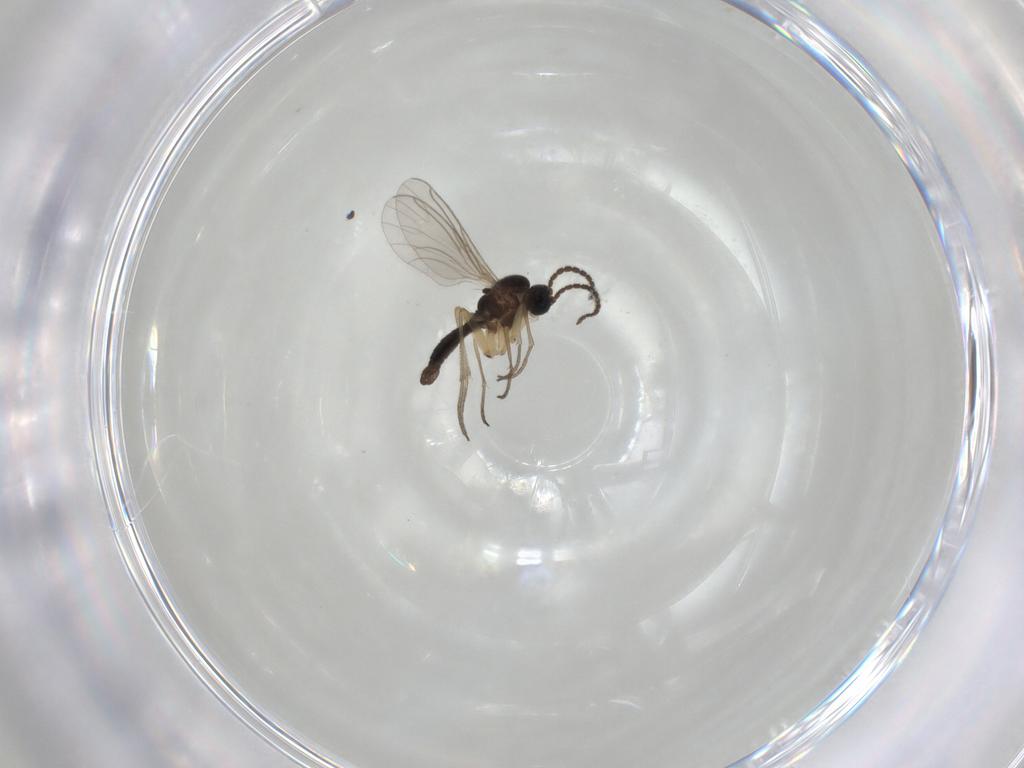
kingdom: Animalia
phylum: Arthropoda
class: Insecta
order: Diptera
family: Sciaridae
